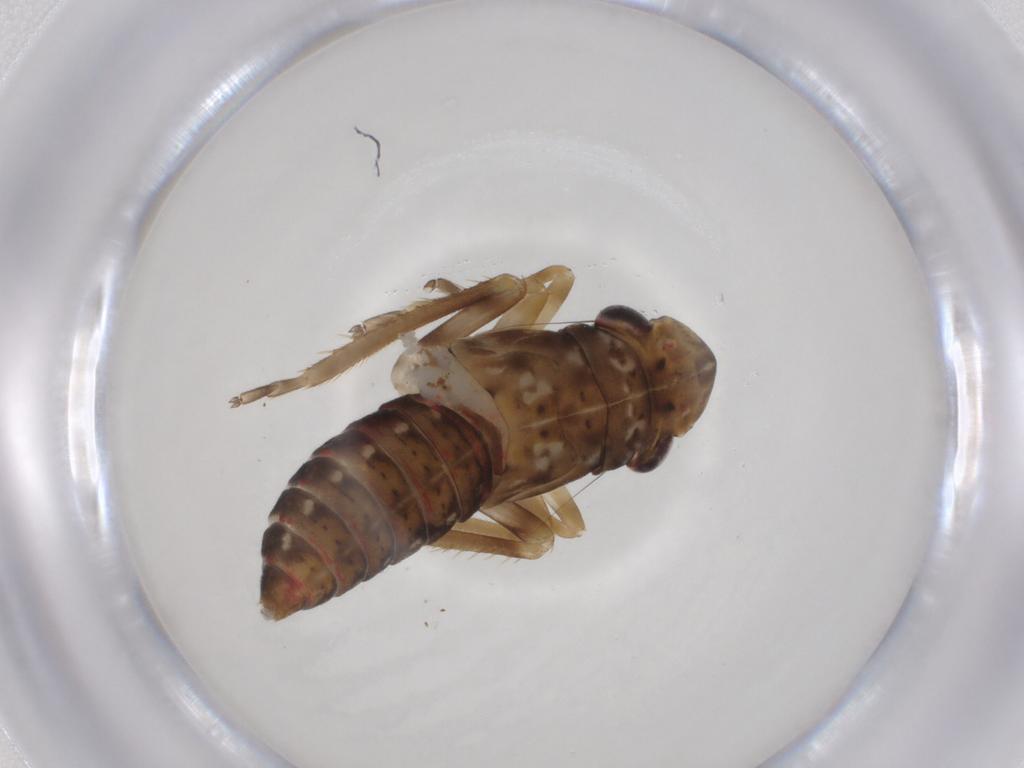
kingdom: Animalia
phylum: Arthropoda
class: Insecta
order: Hemiptera
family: Cicadellidae
